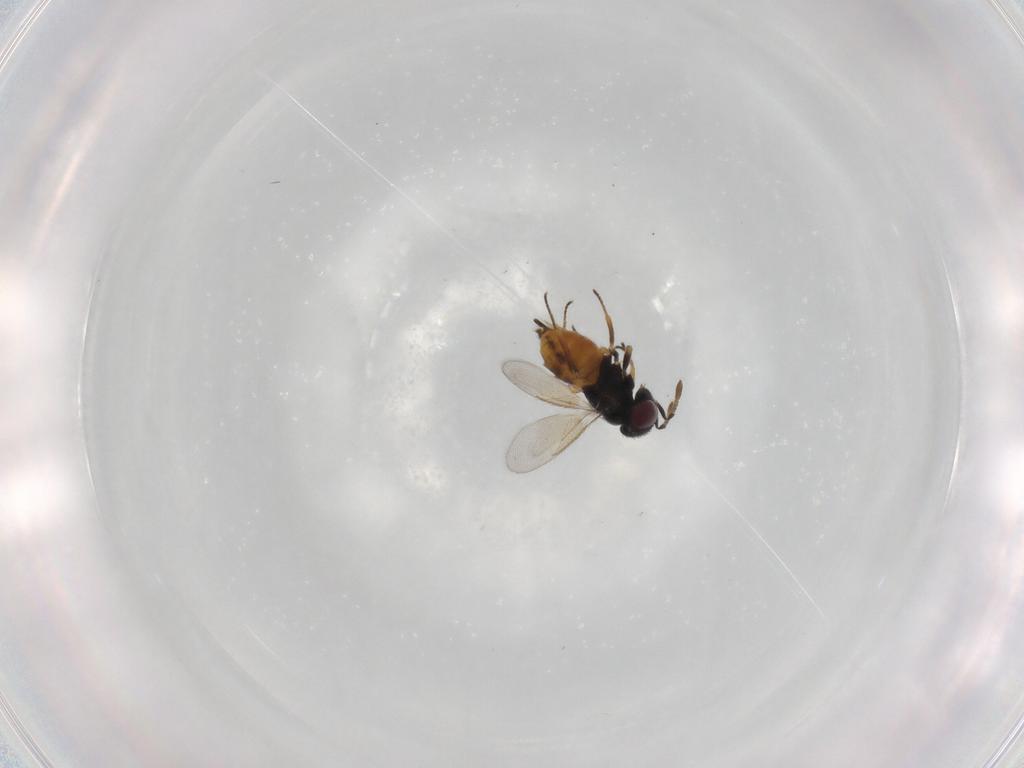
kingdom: Animalia
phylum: Arthropoda
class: Insecta
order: Hymenoptera
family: Aphelinidae
